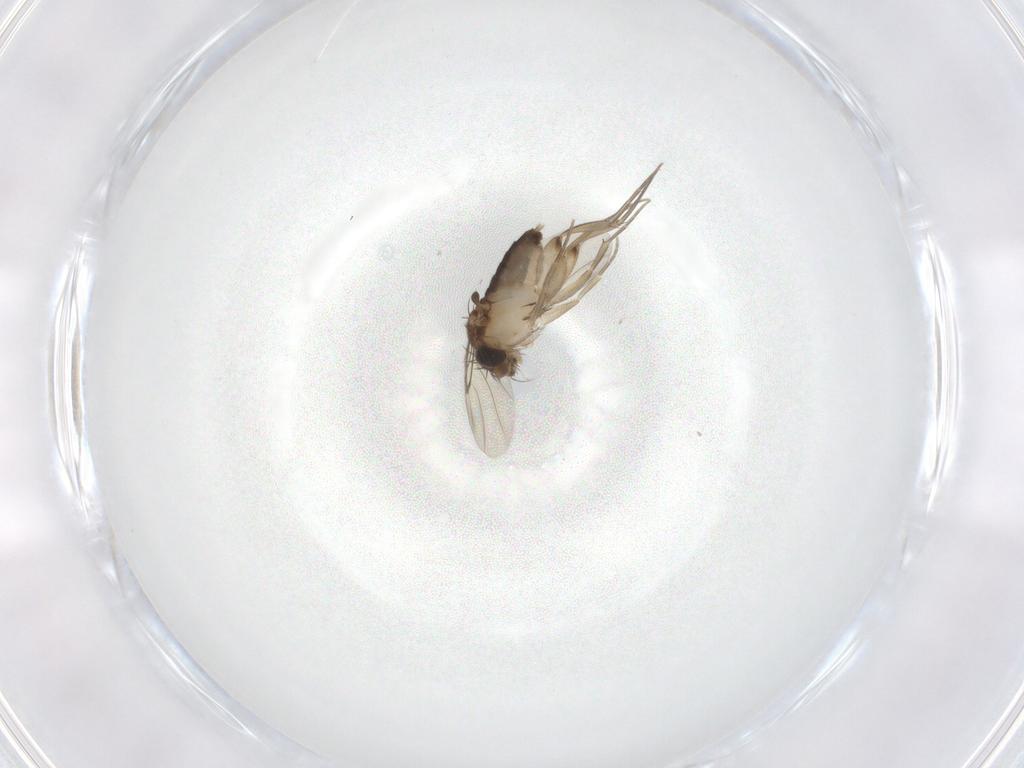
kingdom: Animalia
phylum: Arthropoda
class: Insecta
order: Diptera
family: Phoridae
